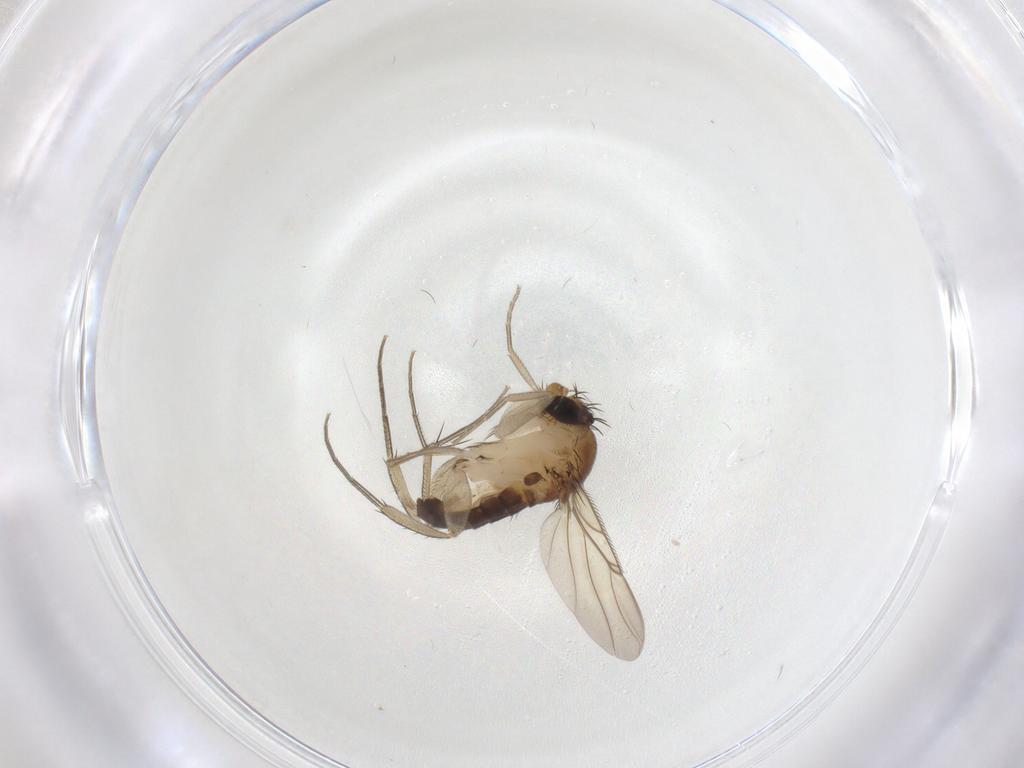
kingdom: Animalia
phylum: Arthropoda
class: Insecta
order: Diptera
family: Phoridae
